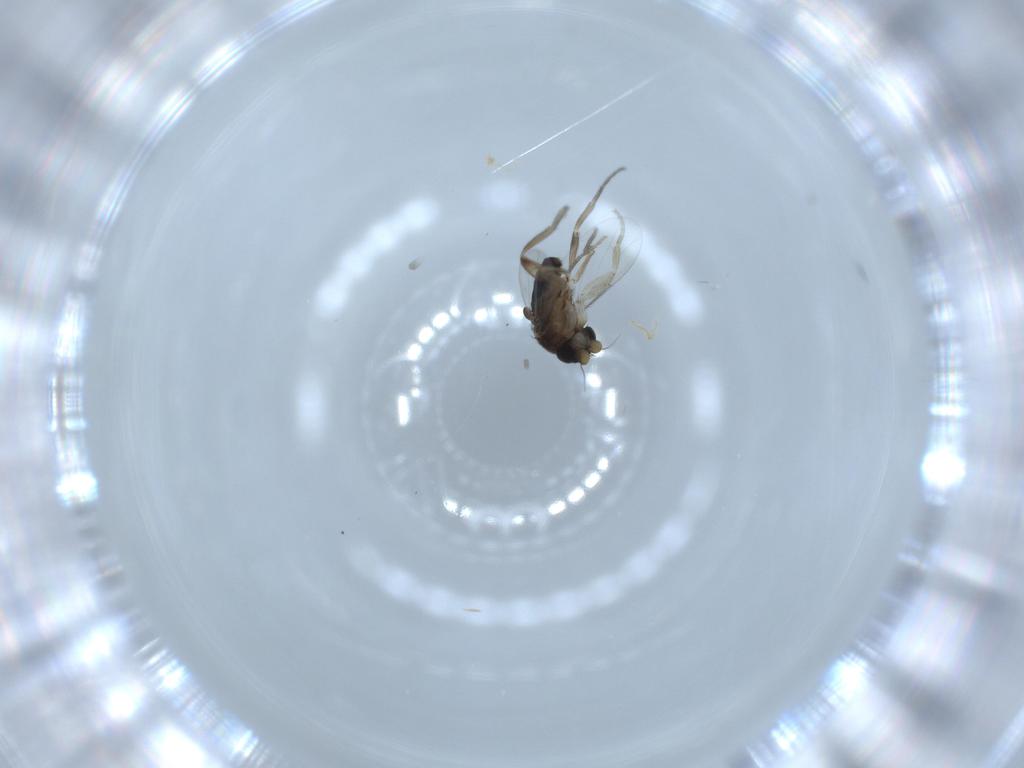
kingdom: Animalia
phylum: Arthropoda
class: Insecta
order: Diptera
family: Phoridae
